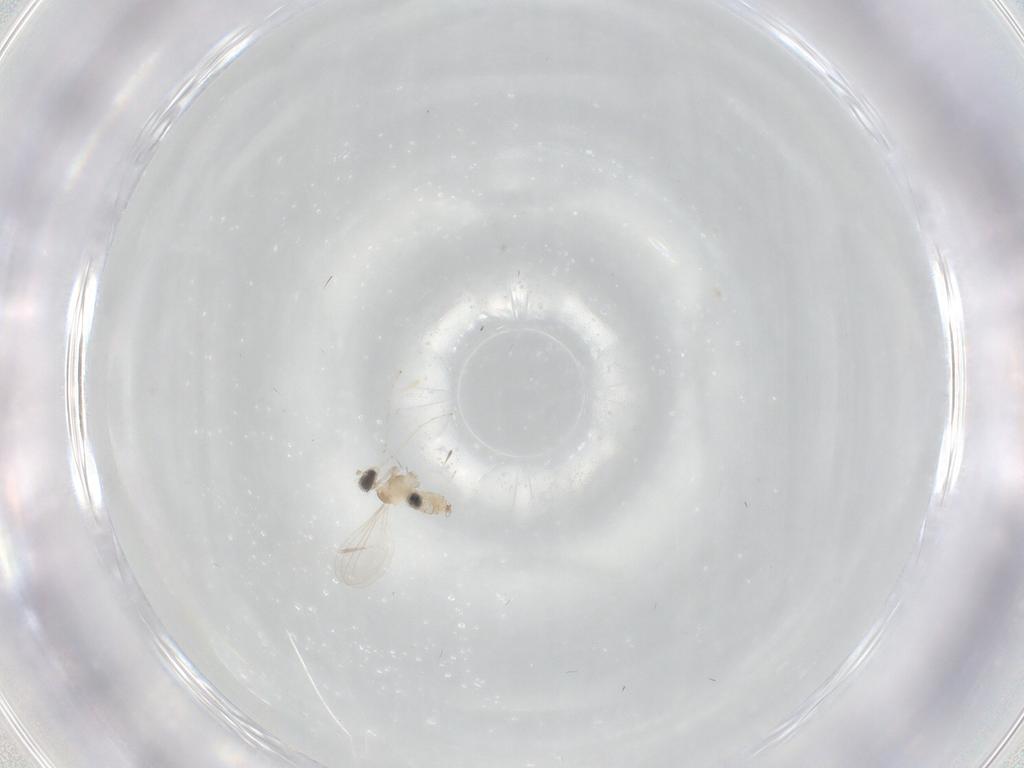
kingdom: Animalia
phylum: Arthropoda
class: Insecta
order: Diptera
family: Cecidomyiidae
